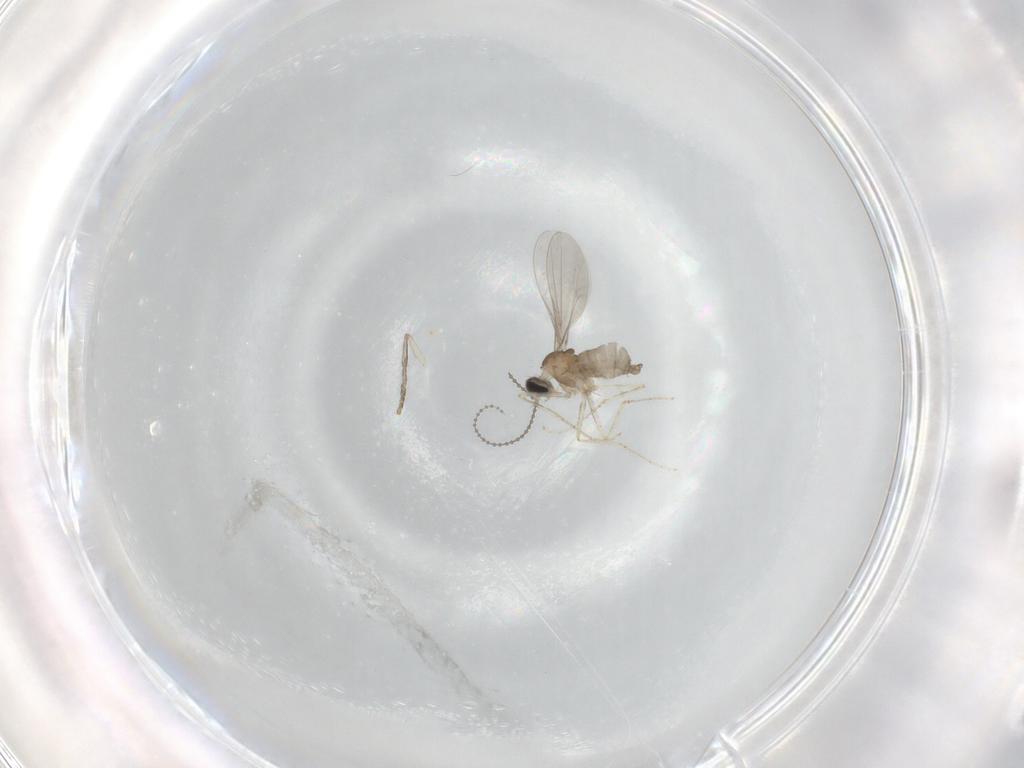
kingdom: Animalia
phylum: Arthropoda
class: Insecta
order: Diptera
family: Cecidomyiidae
